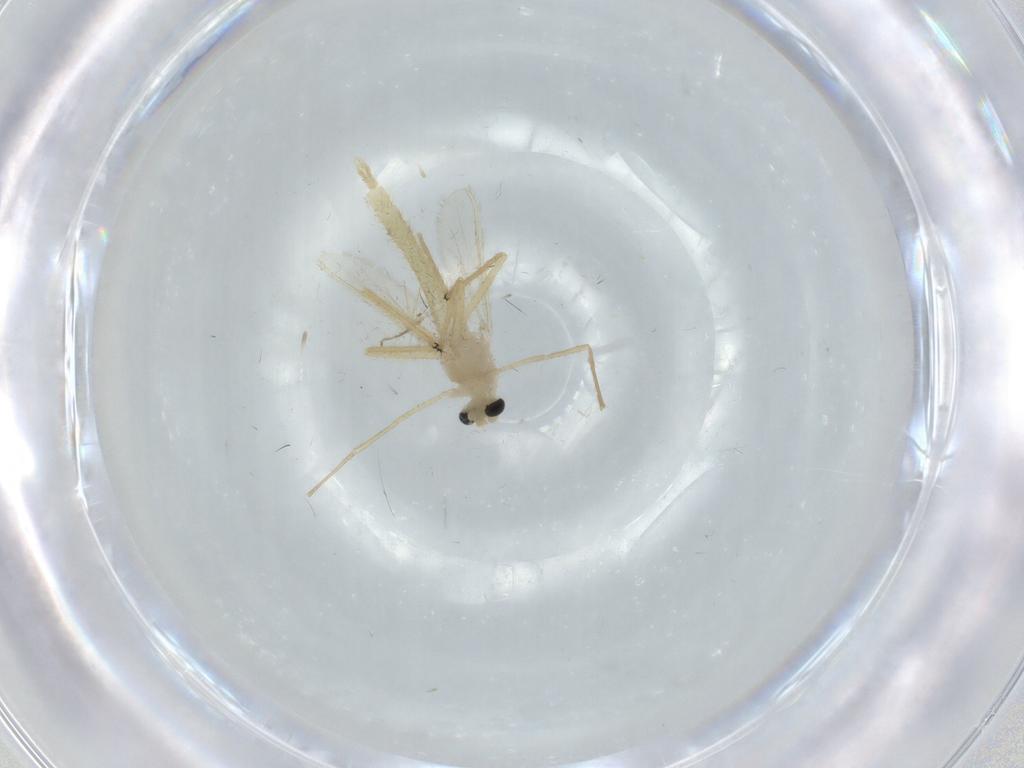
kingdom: Animalia
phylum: Arthropoda
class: Insecta
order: Diptera
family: Chironomidae
